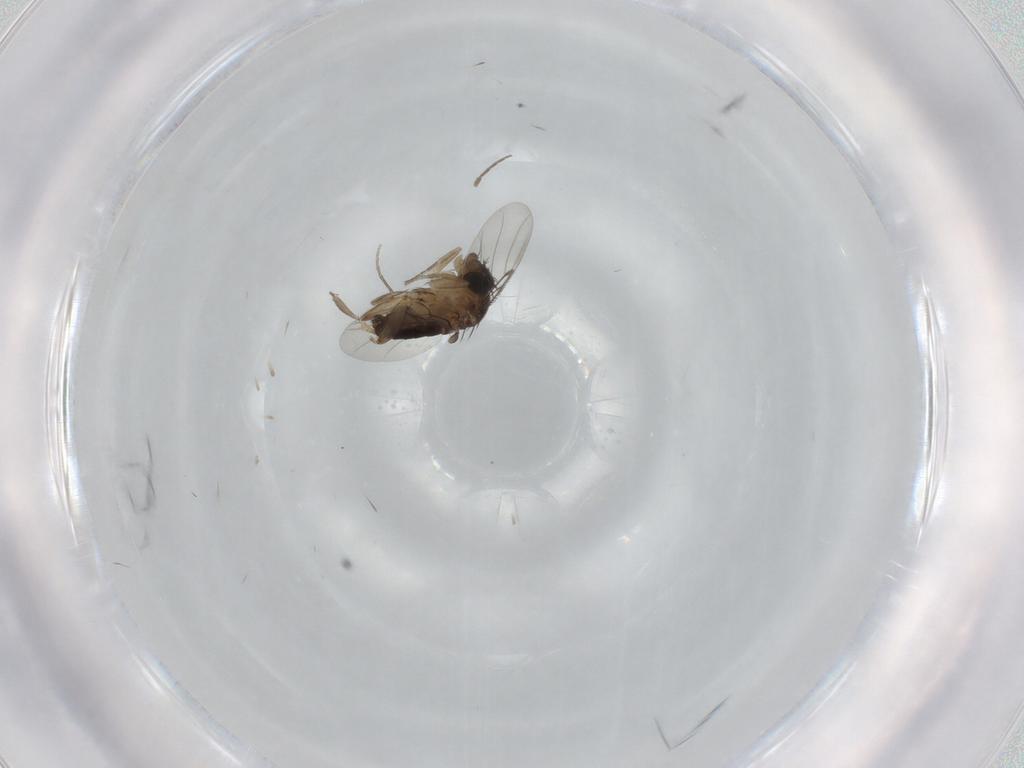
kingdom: Animalia
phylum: Arthropoda
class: Insecta
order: Diptera
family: Phoridae
